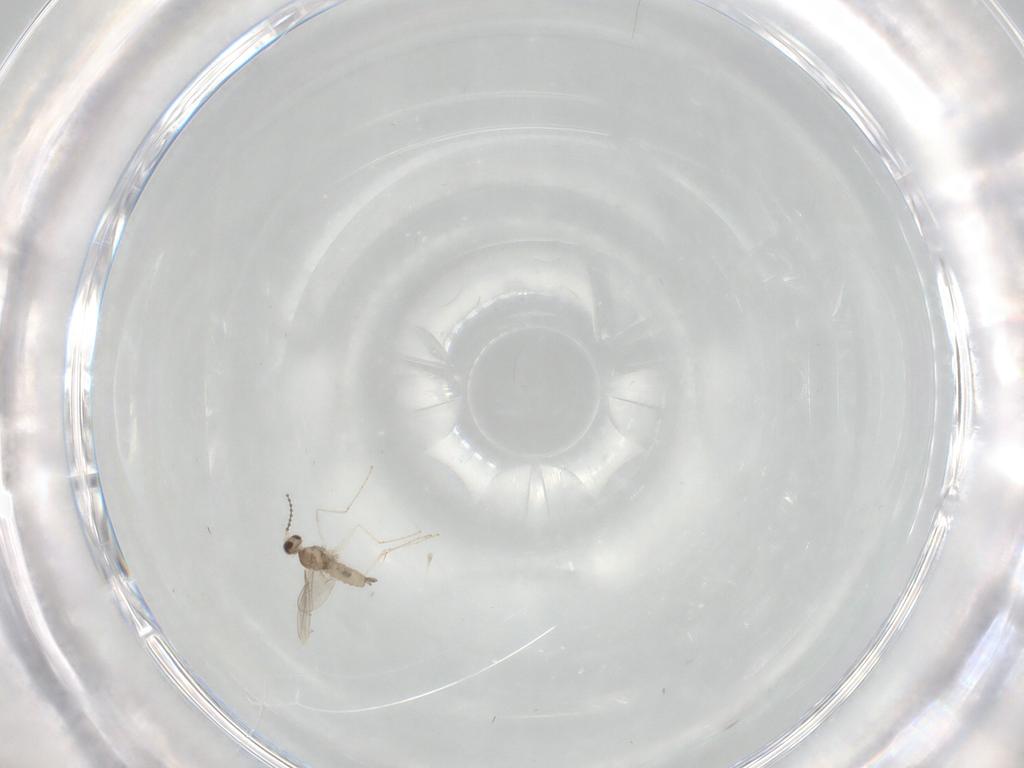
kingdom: Animalia
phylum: Arthropoda
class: Insecta
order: Diptera
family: Cecidomyiidae
